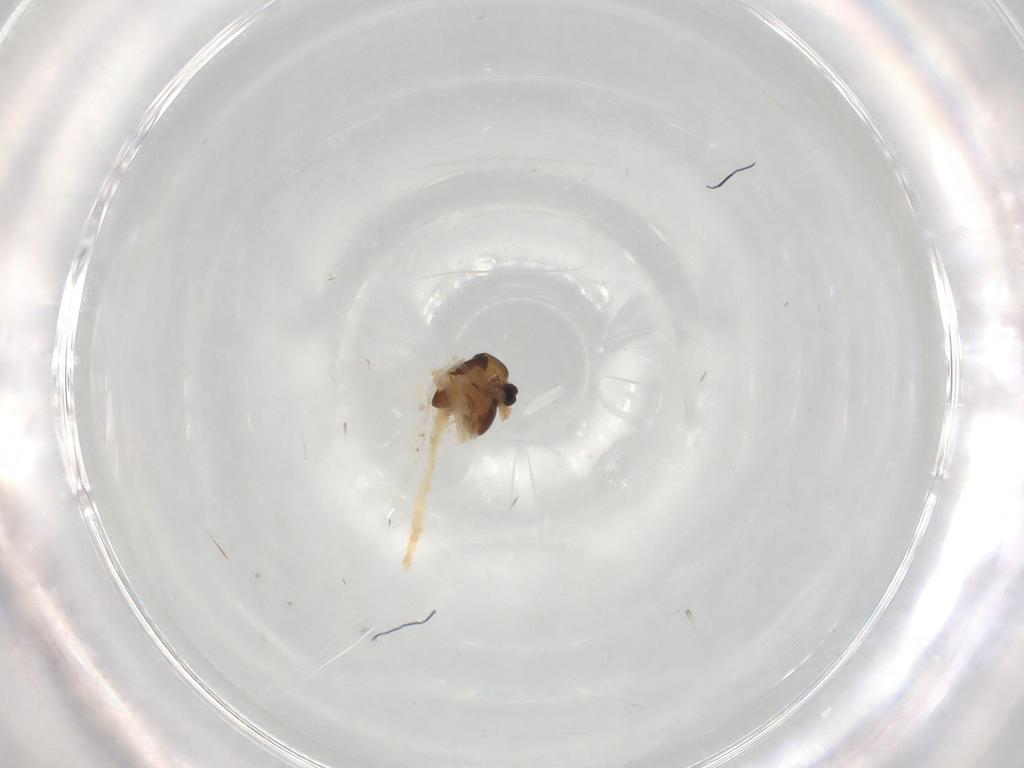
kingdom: Animalia
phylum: Arthropoda
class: Insecta
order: Diptera
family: Chironomidae
